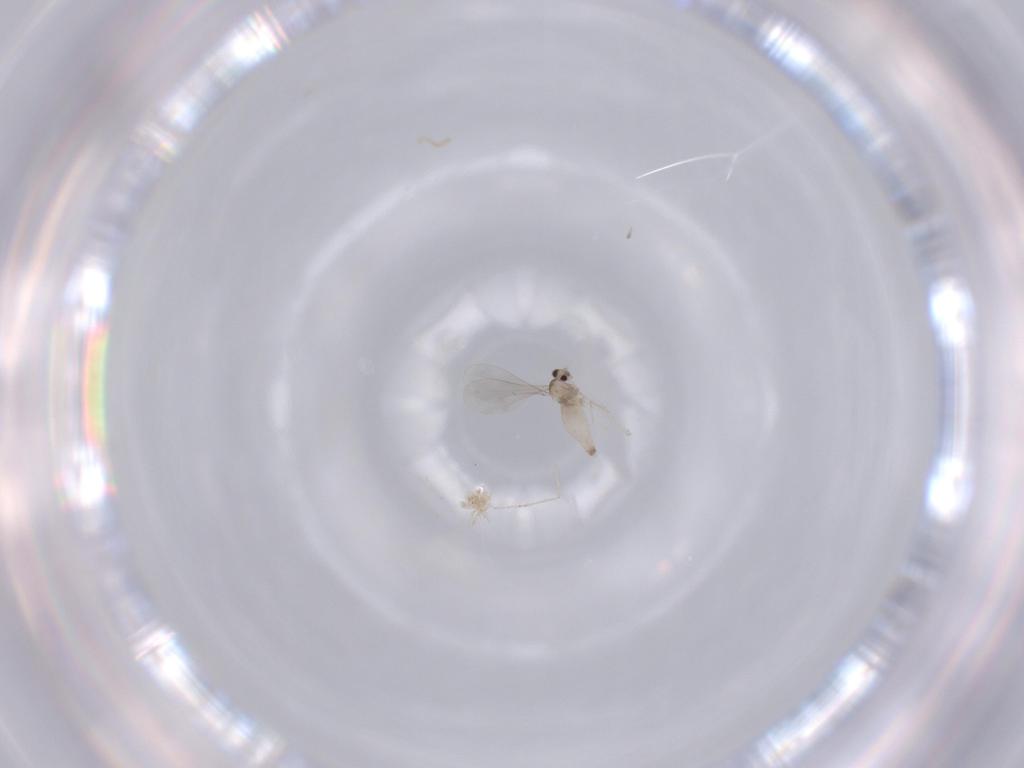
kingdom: Animalia
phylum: Arthropoda
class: Insecta
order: Diptera
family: Cecidomyiidae
